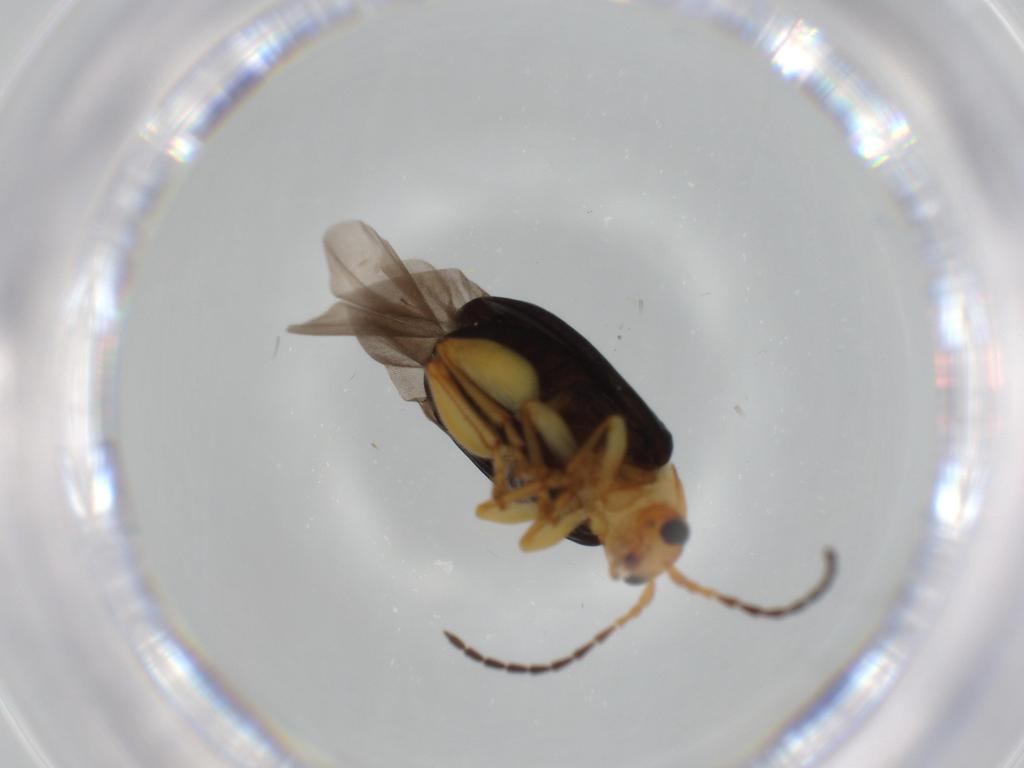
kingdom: Animalia
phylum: Arthropoda
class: Insecta
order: Coleoptera
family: Chrysomelidae
